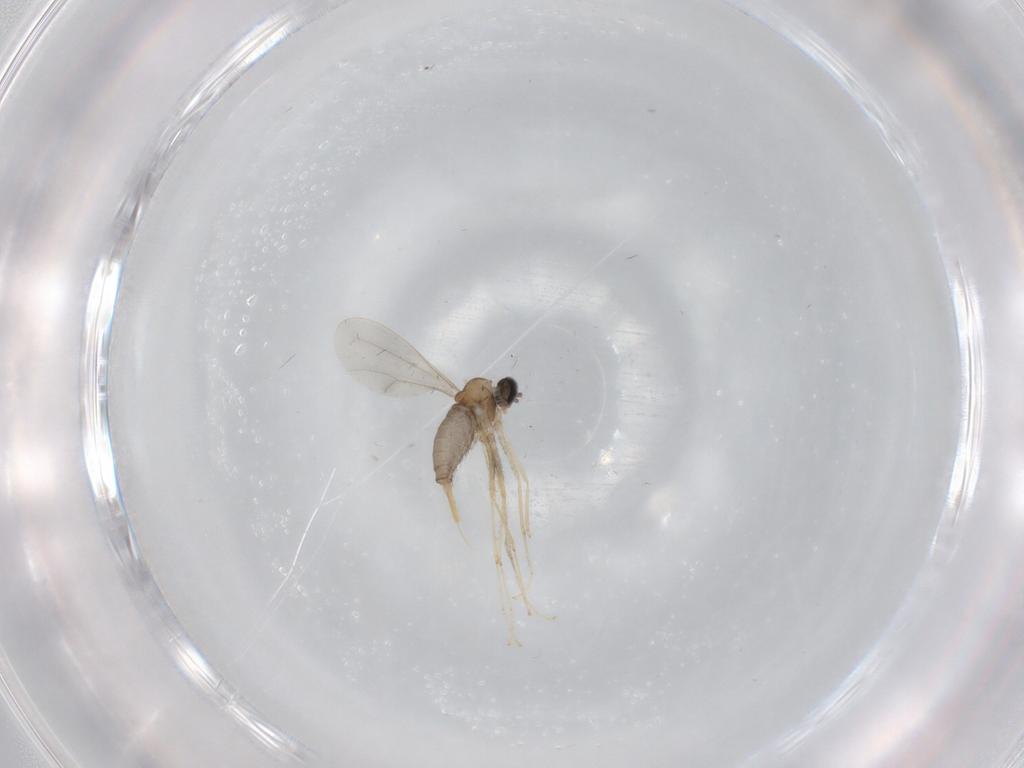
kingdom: Animalia
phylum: Arthropoda
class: Insecta
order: Diptera
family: Cecidomyiidae
